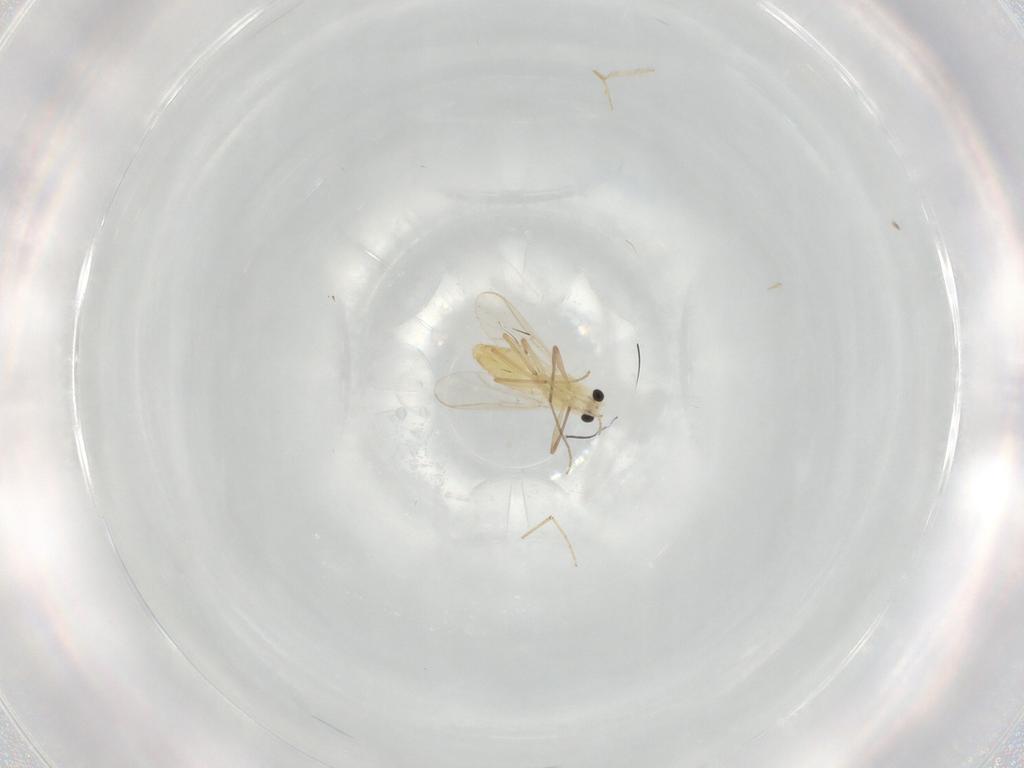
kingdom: Animalia
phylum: Arthropoda
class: Insecta
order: Diptera
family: Chironomidae
